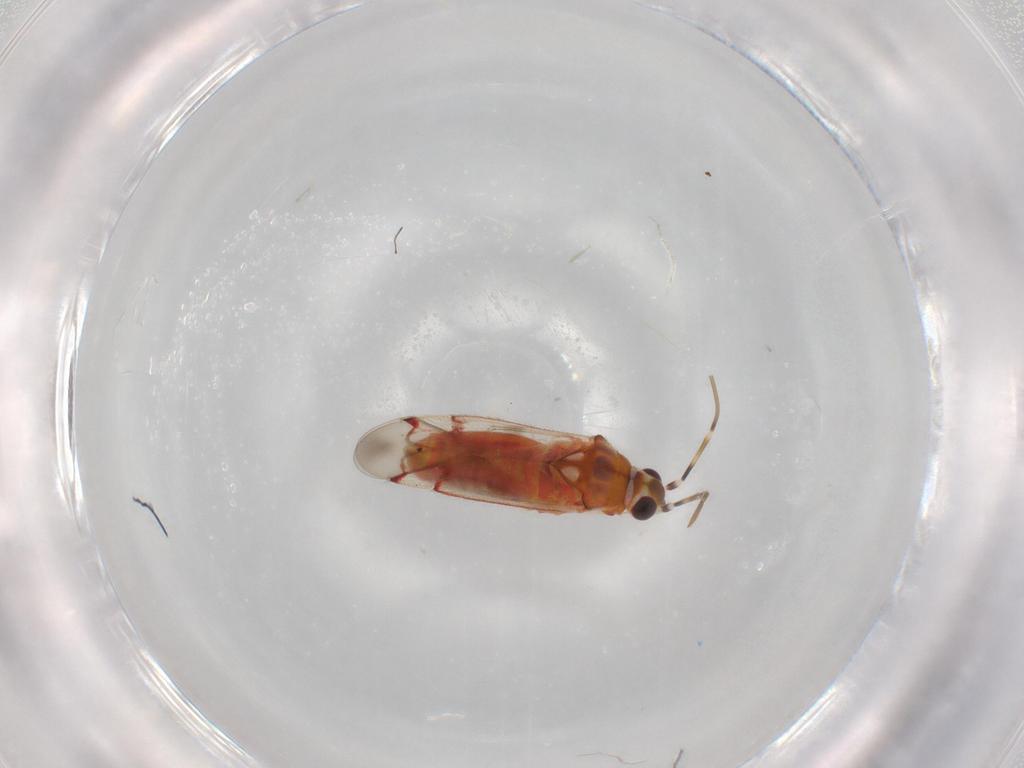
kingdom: Animalia
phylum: Arthropoda
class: Insecta
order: Hemiptera
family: Miridae
